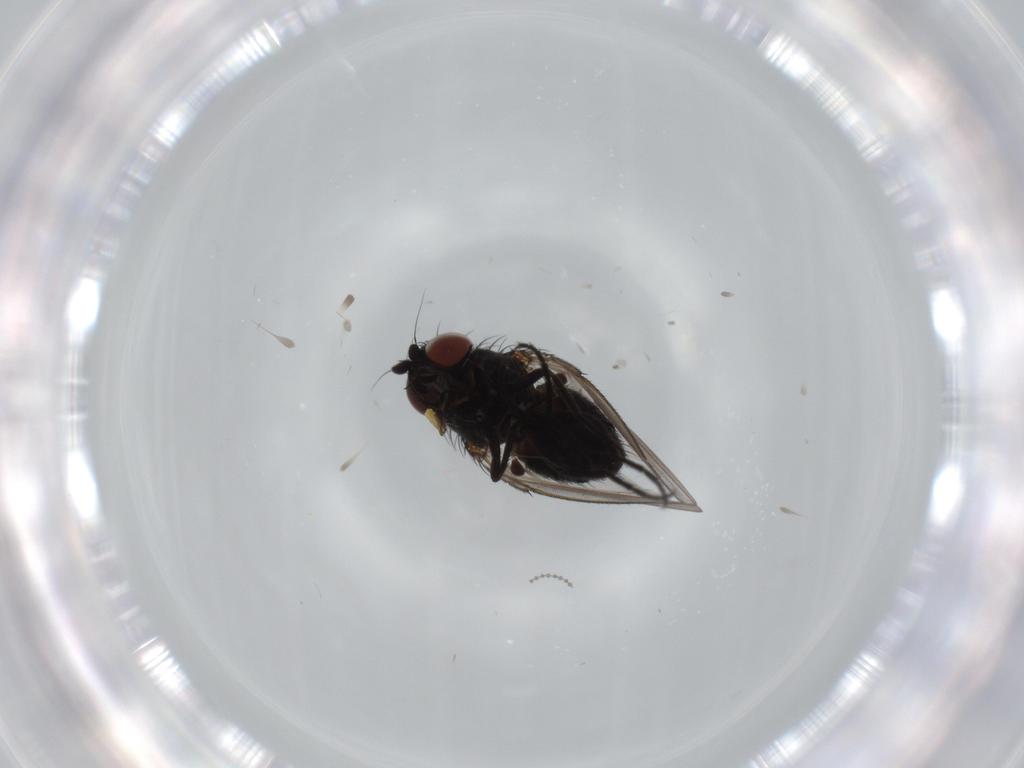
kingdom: Animalia
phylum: Arthropoda
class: Insecta
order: Diptera
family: Milichiidae
